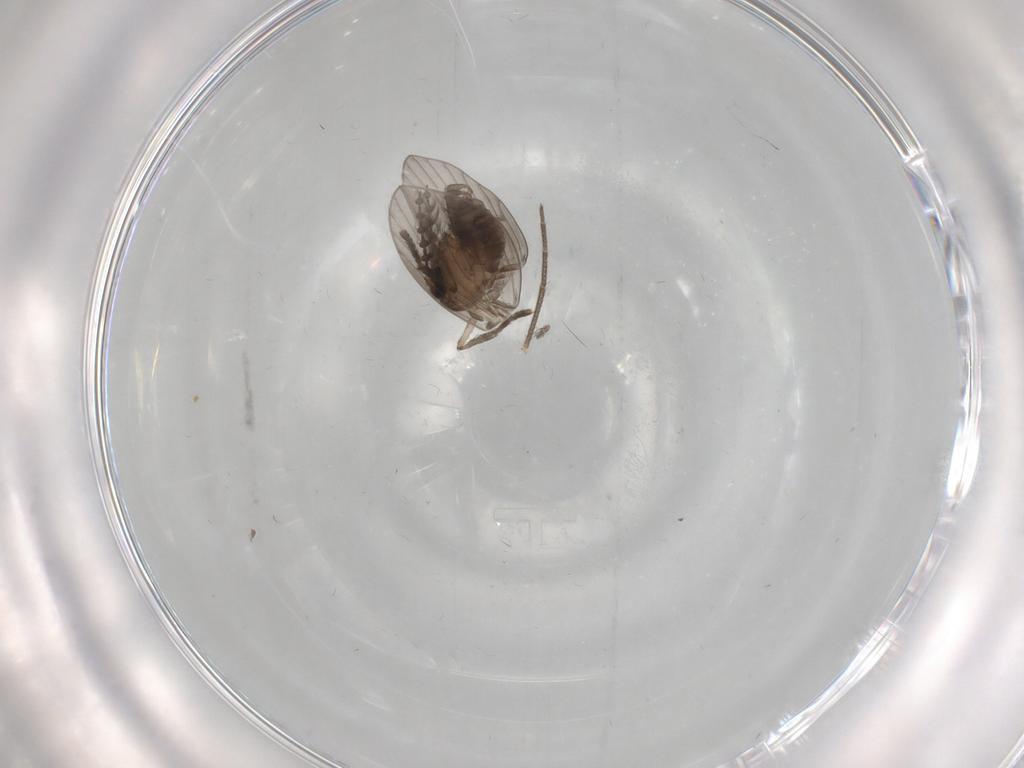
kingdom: Animalia
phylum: Arthropoda
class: Insecta
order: Diptera
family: Psychodidae
